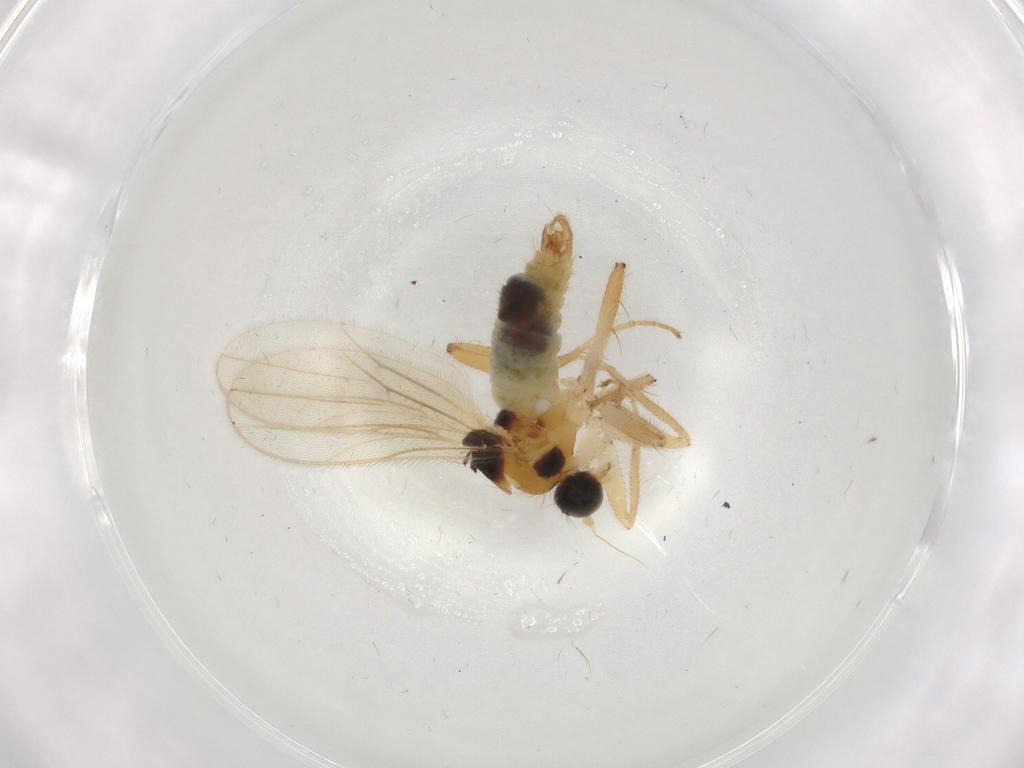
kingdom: Animalia
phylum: Arthropoda
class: Insecta
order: Diptera
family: Hybotidae
